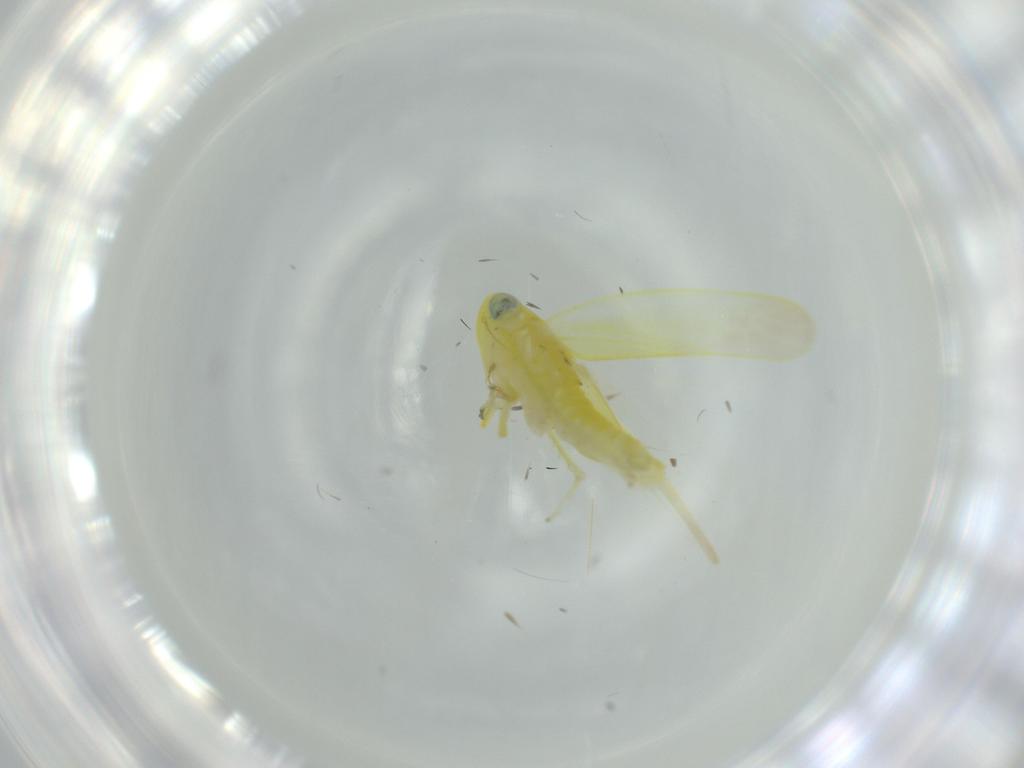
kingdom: Animalia
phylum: Arthropoda
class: Insecta
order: Hemiptera
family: Cicadellidae
